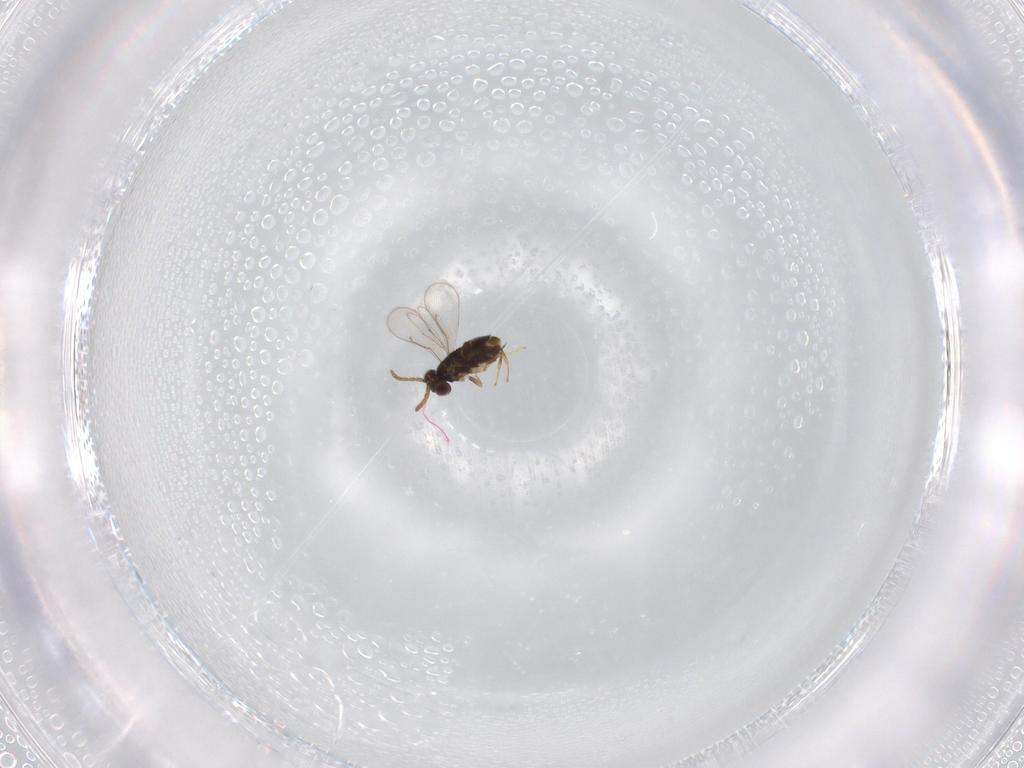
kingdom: Animalia
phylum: Arthropoda
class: Insecta
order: Hymenoptera
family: Aphelinidae
